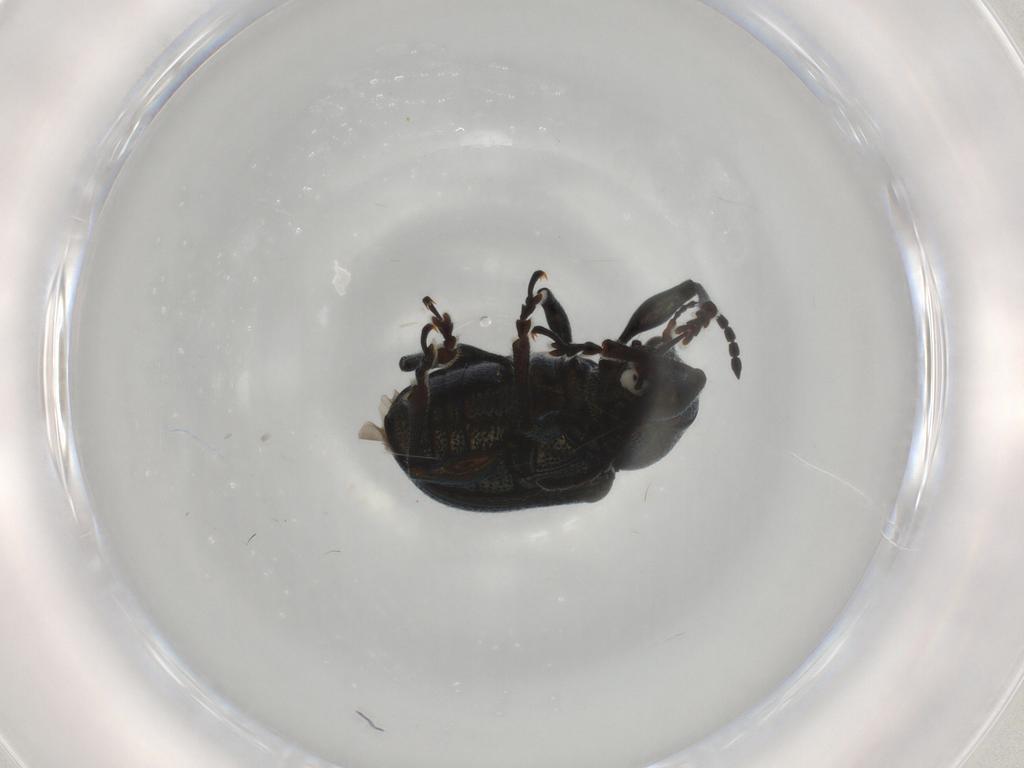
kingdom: Animalia
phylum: Arthropoda
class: Insecta
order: Coleoptera
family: Chrysomelidae
